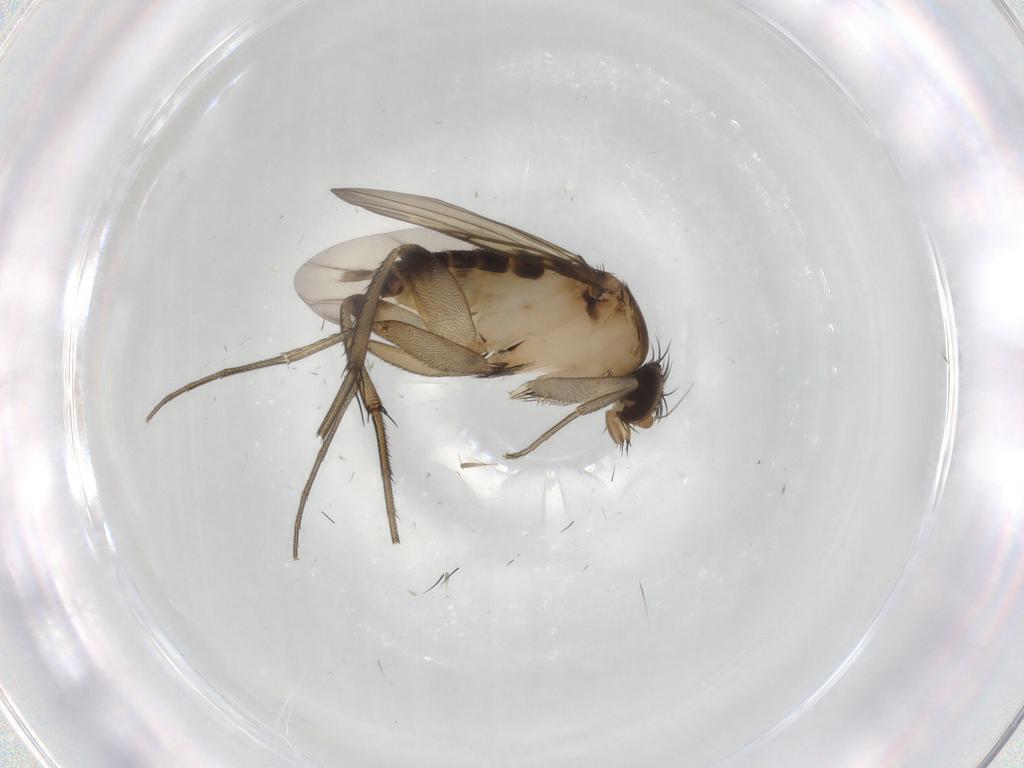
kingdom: Animalia
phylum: Arthropoda
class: Insecta
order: Diptera
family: Phoridae
